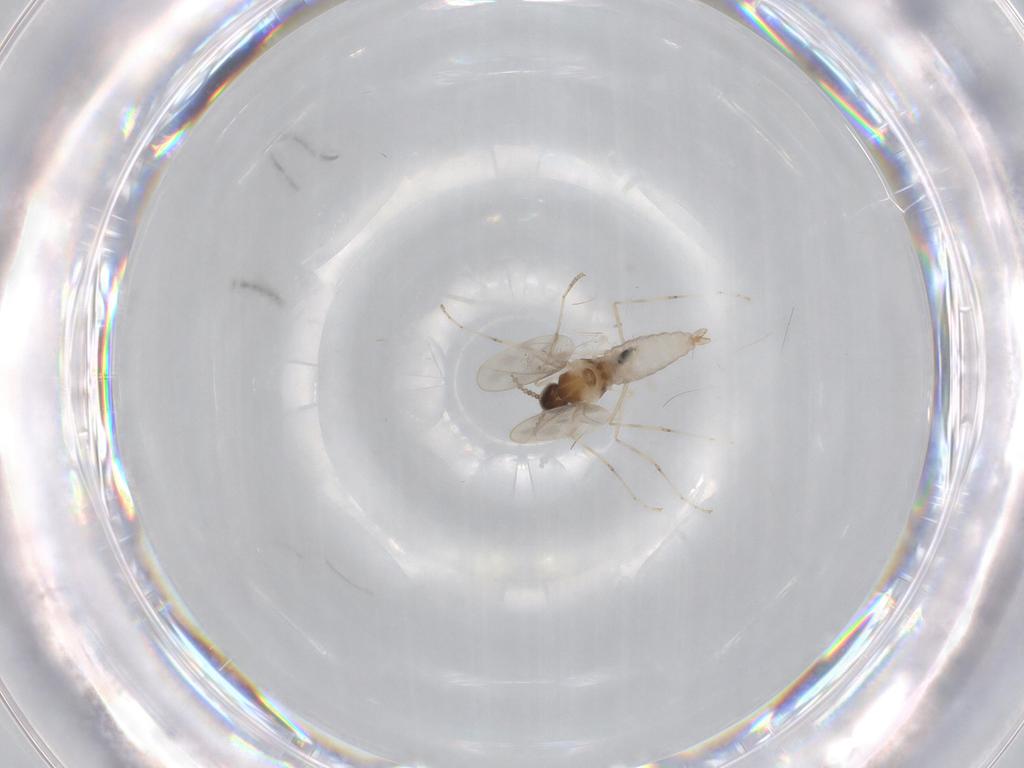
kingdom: Animalia
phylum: Arthropoda
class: Insecta
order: Diptera
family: Cecidomyiidae
